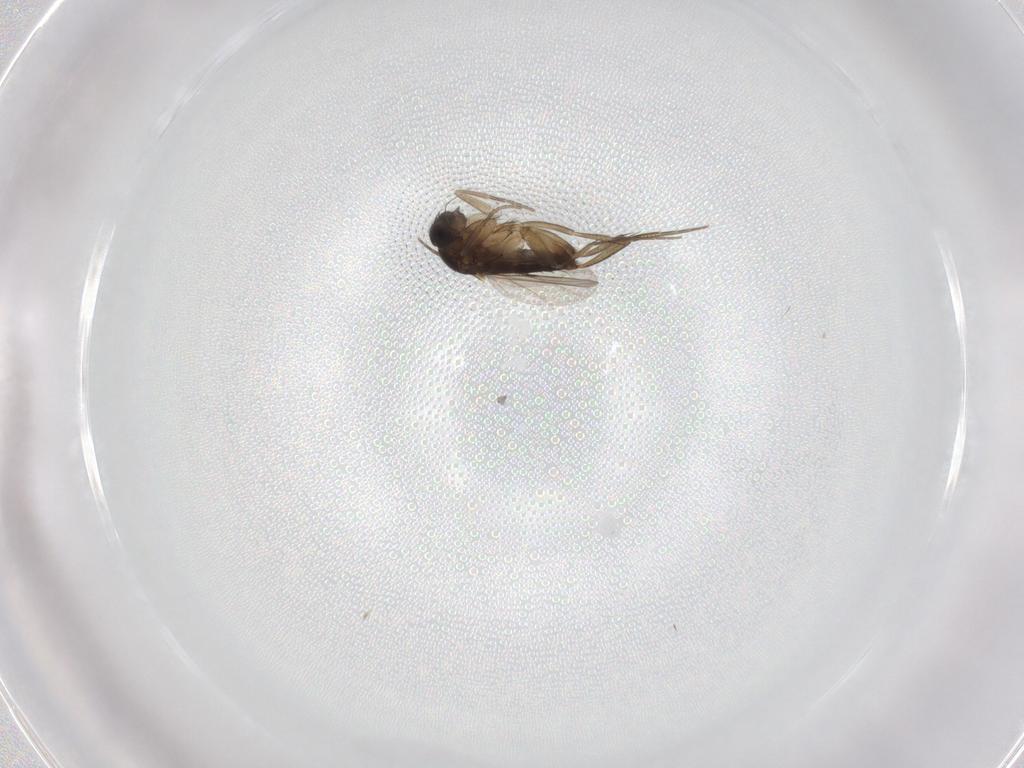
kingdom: Animalia
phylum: Arthropoda
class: Insecta
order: Diptera
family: Phoridae
